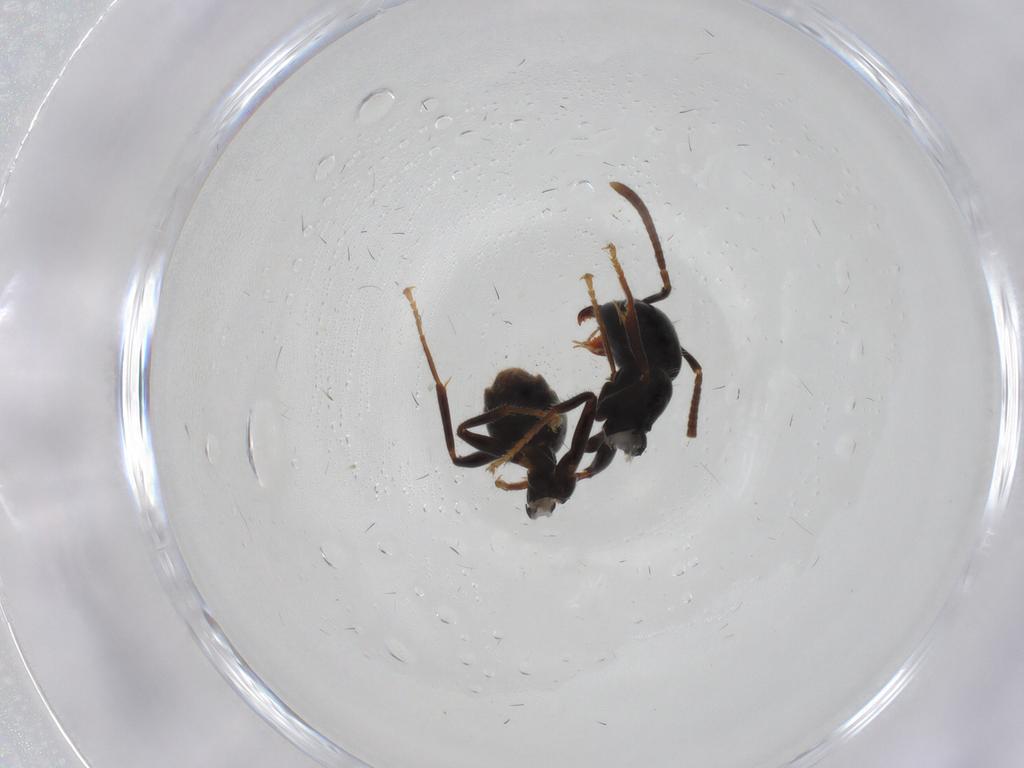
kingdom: Animalia
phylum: Arthropoda
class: Insecta
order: Hymenoptera
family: Formicidae
